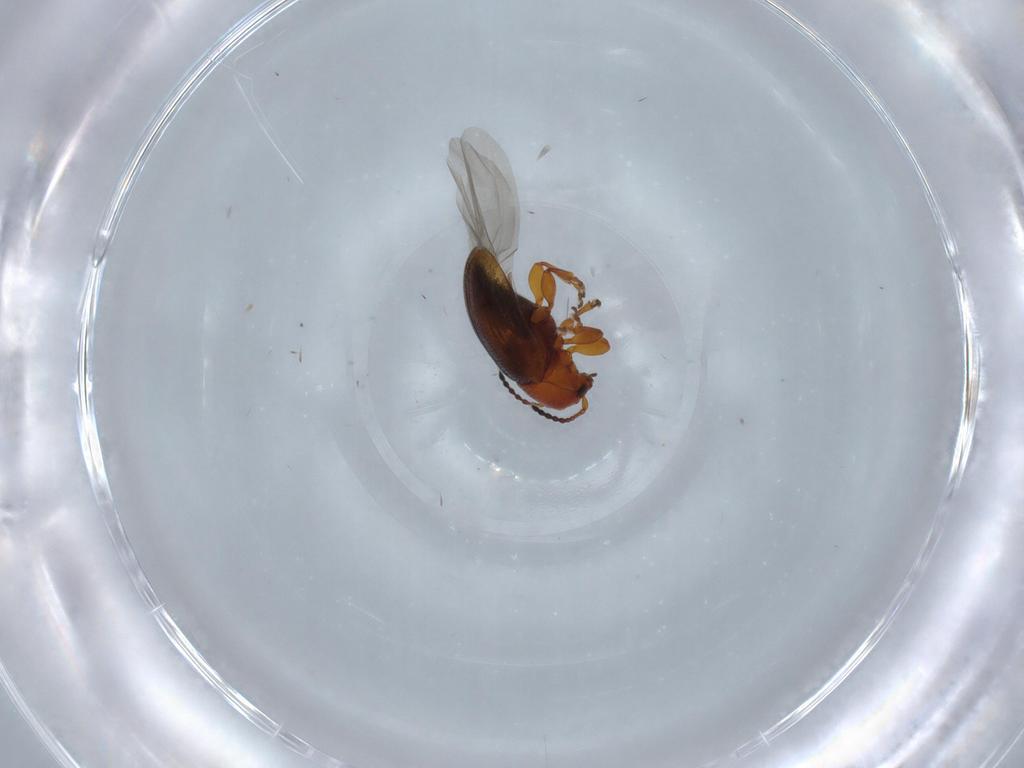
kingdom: Animalia
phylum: Arthropoda
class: Insecta
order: Coleoptera
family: Chrysomelidae
